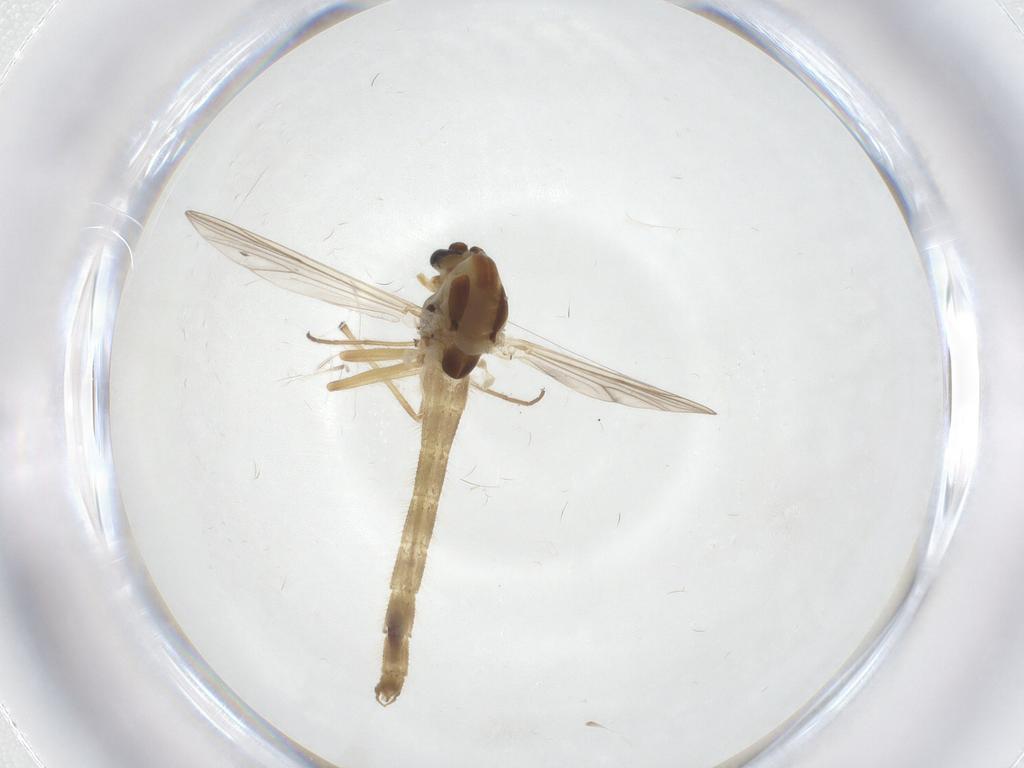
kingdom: Animalia
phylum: Arthropoda
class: Insecta
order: Diptera
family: Chironomidae
